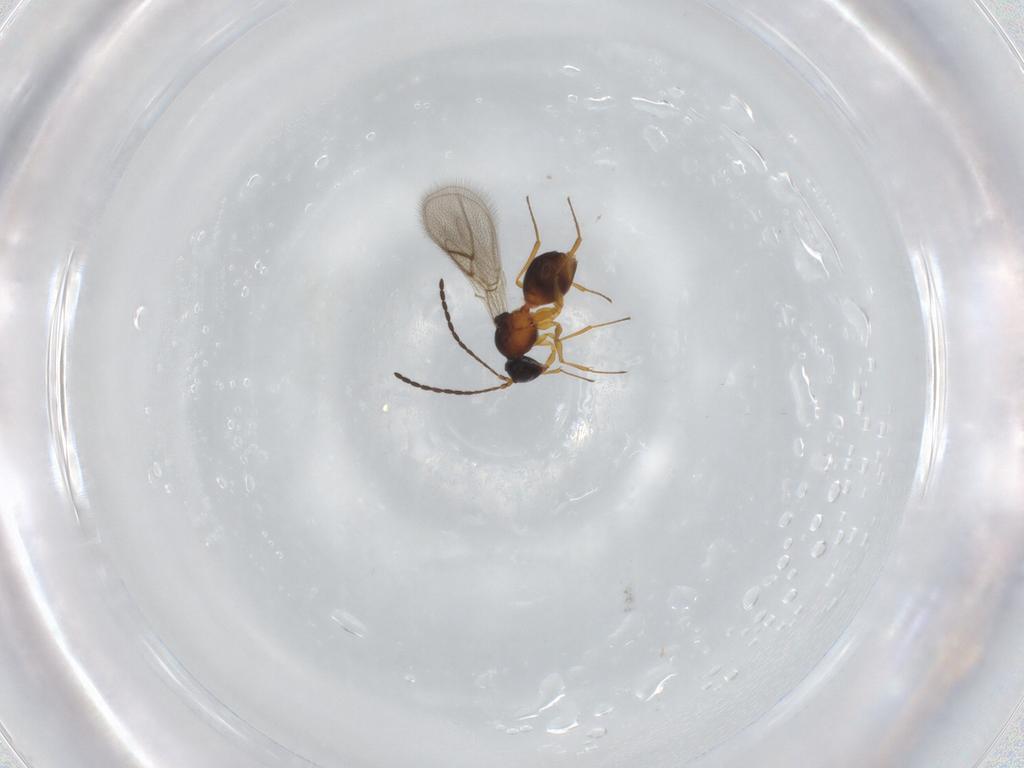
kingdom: Animalia
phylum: Arthropoda
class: Insecta
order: Hymenoptera
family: Figitidae
